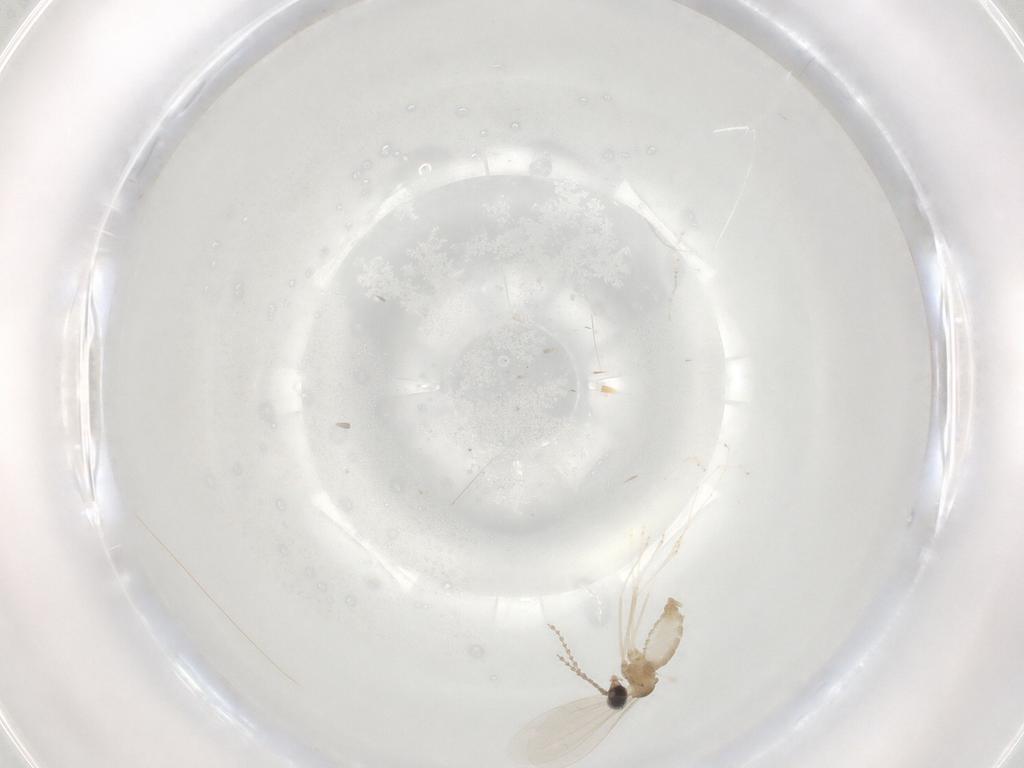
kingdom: Animalia
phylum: Arthropoda
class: Insecta
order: Diptera
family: Cecidomyiidae
